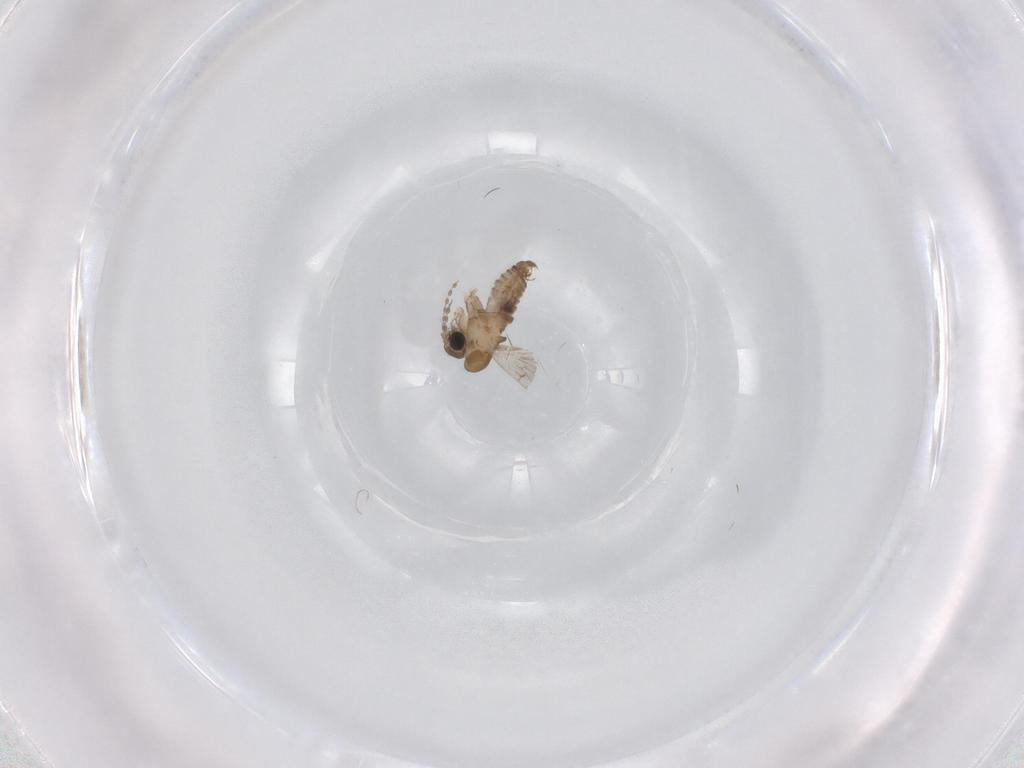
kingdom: Animalia
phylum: Arthropoda
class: Insecta
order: Diptera
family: Psychodidae
